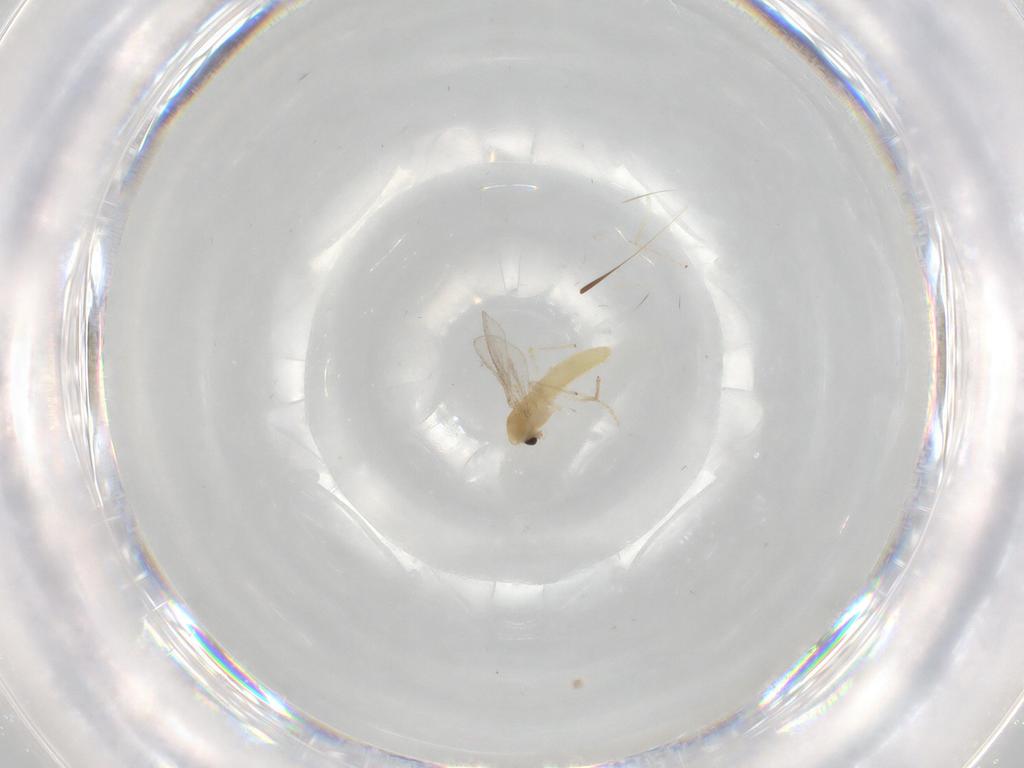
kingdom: Animalia
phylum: Arthropoda
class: Insecta
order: Diptera
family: Chironomidae
